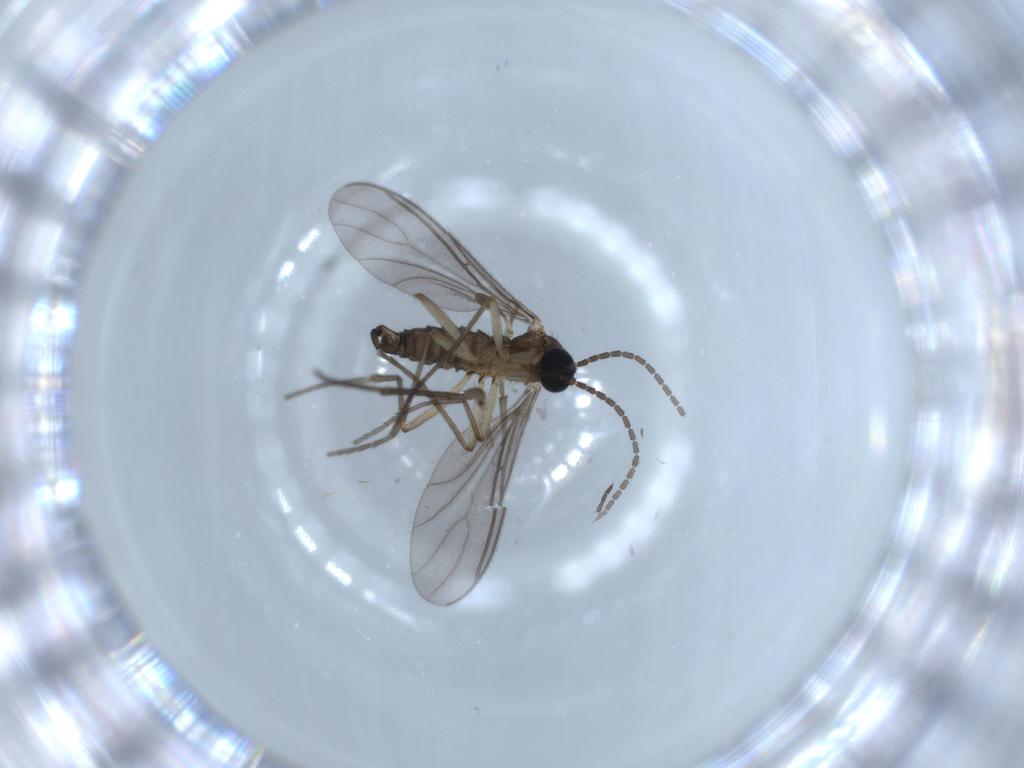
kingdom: Animalia
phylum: Arthropoda
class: Insecta
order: Diptera
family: Sciaridae
